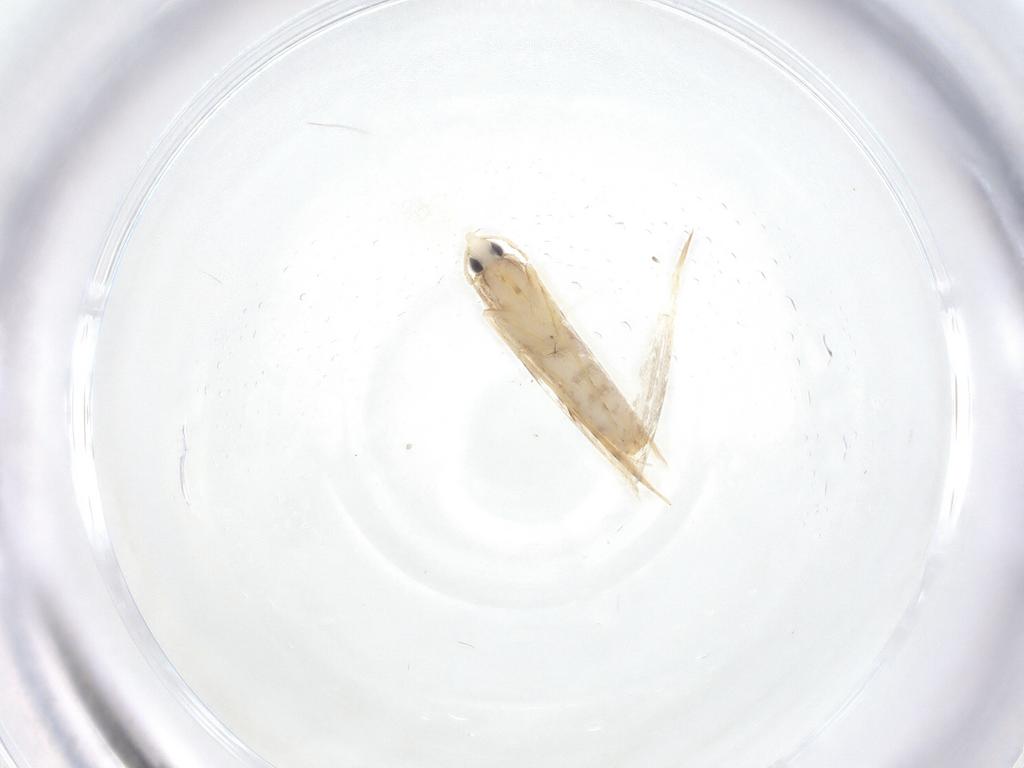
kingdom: Animalia
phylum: Arthropoda
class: Insecta
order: Lepidoptera
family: Tineidae
